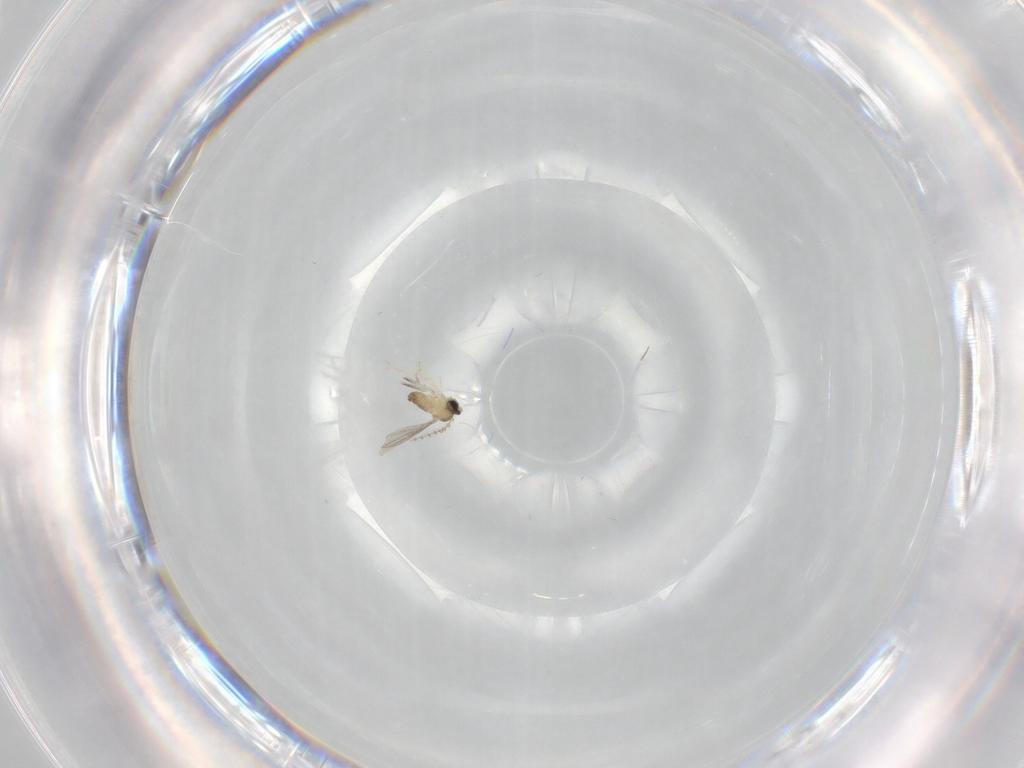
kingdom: Animalia
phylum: Arthropoda
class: Insecta
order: Diptera
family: Cecidomyiidae
